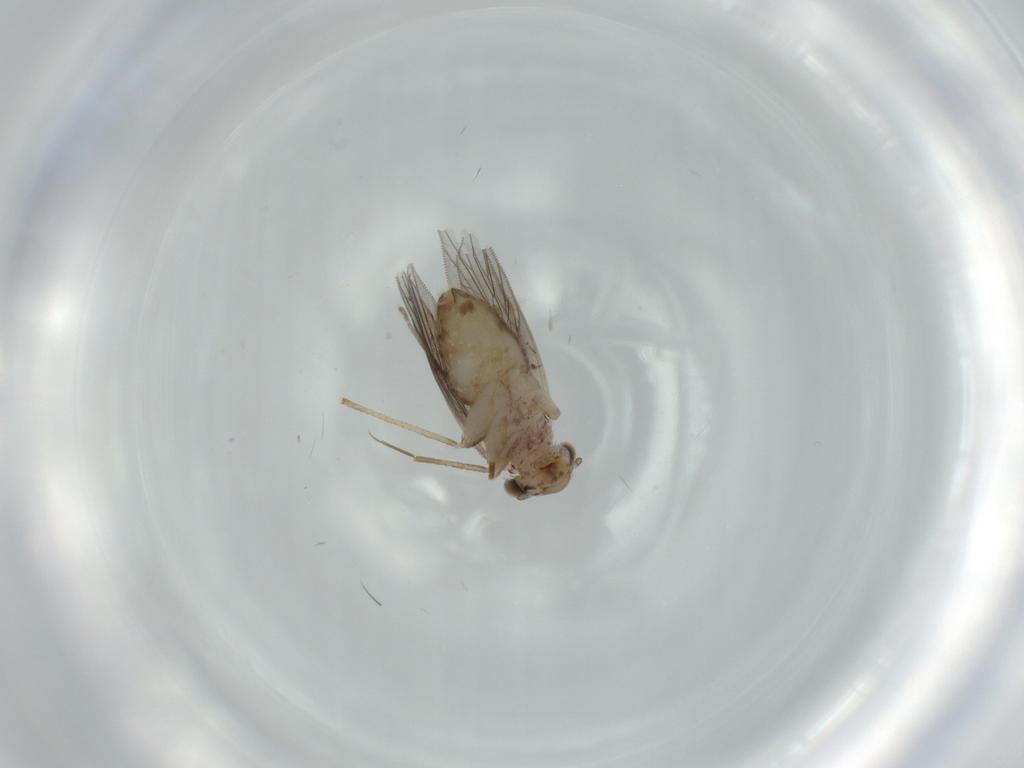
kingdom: Animalia
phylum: Arthropoda
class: Insecta
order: Psocodea
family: Lepidopsocidae
